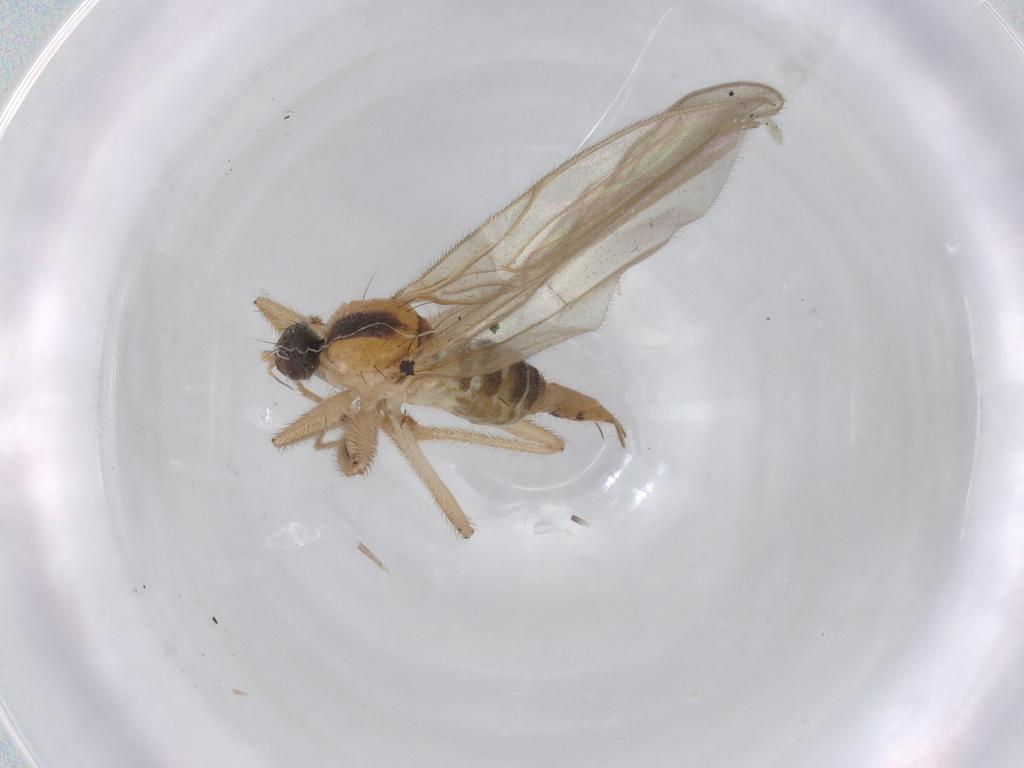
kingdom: Animalia
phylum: Arthropoda
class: Insecta
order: Diptera
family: Hybotidae
